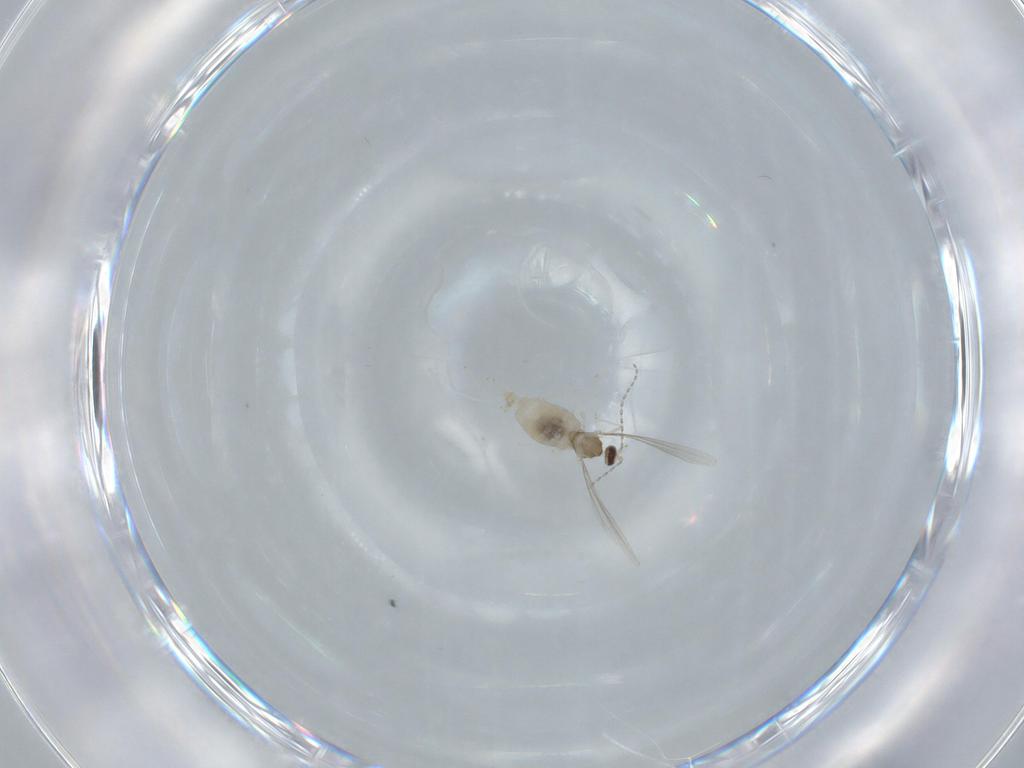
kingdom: Animalia
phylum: Arthropoda
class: Insecta
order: Diptera
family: Cecidomyiidae
